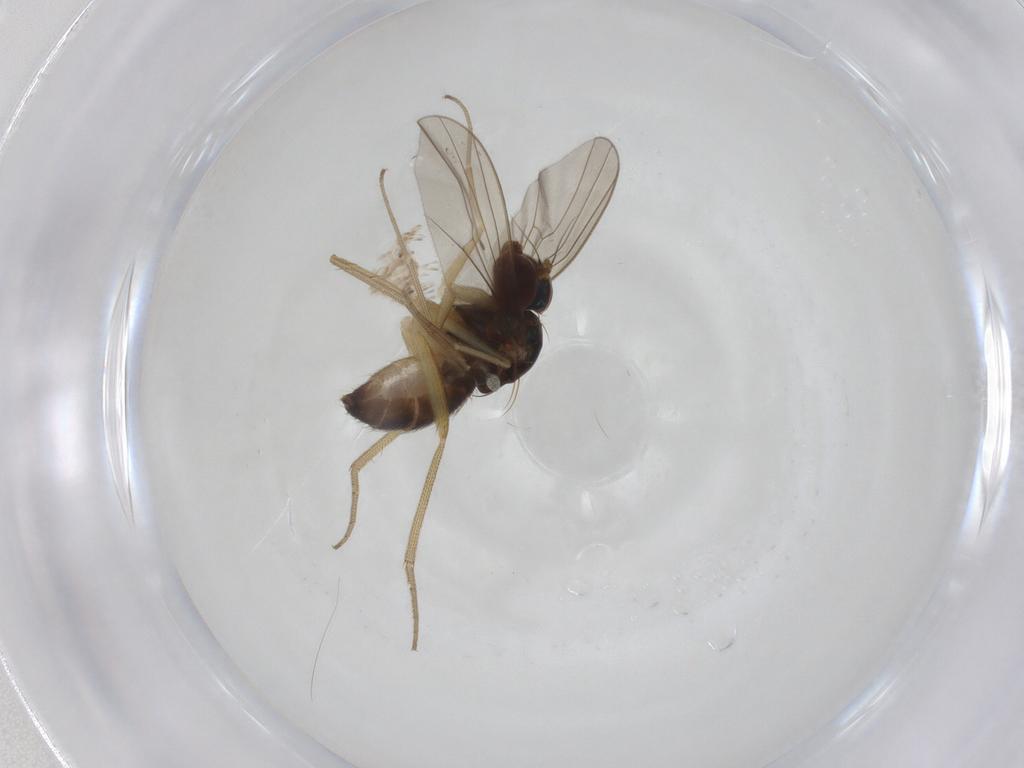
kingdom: Animalia
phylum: Arthropoda
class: Insecta
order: Diptera
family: Dolichopodidae
